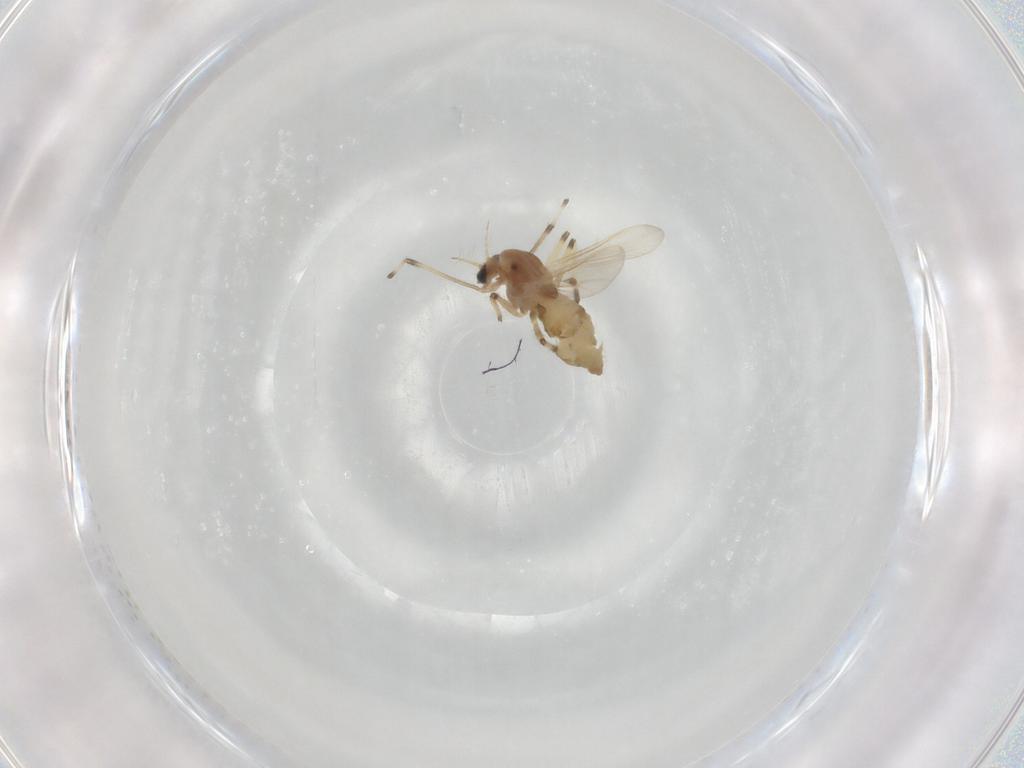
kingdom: Animalia
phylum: Arthropoda
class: Insecta
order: Diptera
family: Chironomidae
